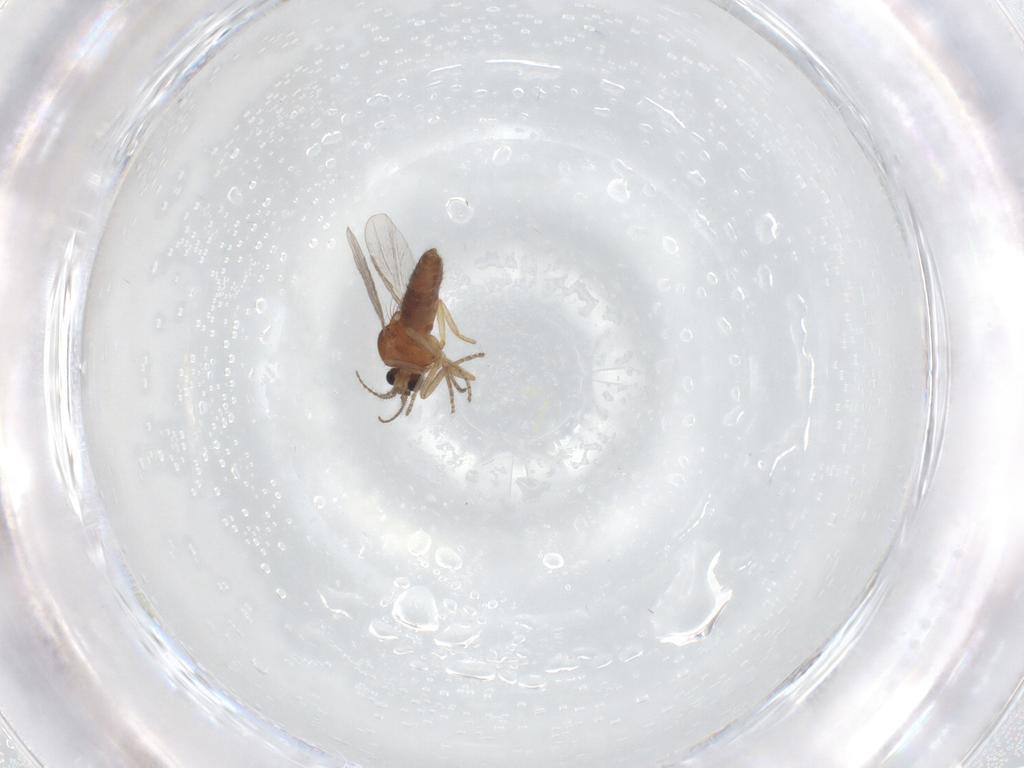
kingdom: Animalia
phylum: Arthropoda
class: Insecta
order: Diptera
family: Ceratopogonidae
